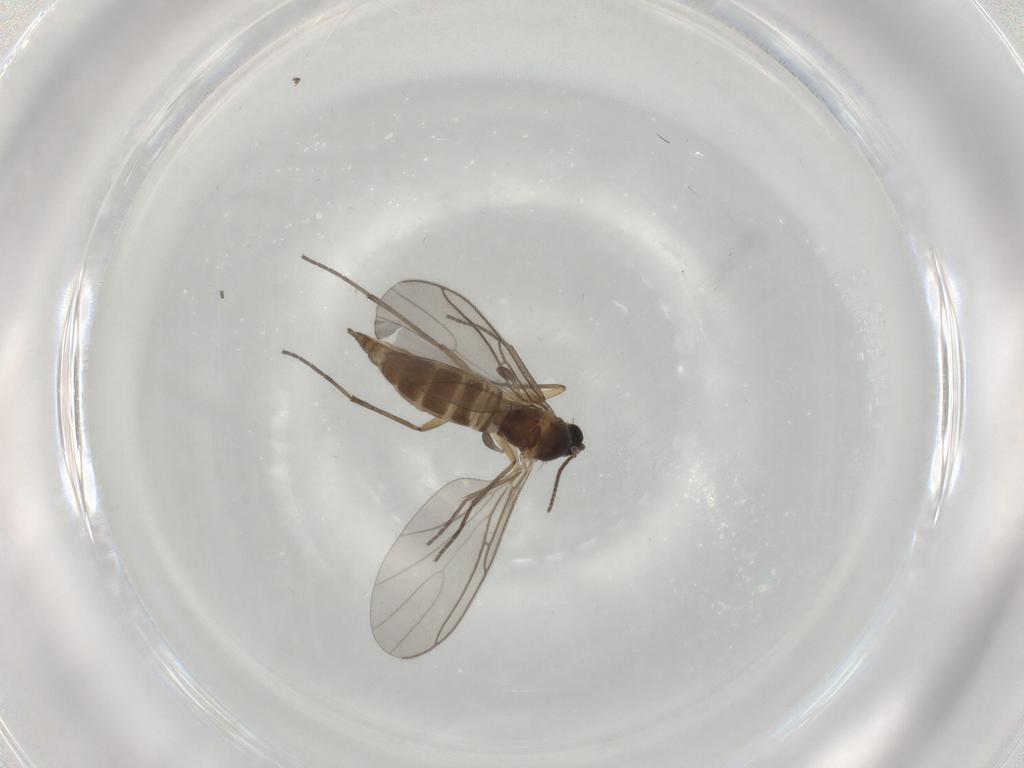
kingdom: Animalia
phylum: Arthropoda
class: Insecta
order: Diptera
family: Sciaridae
